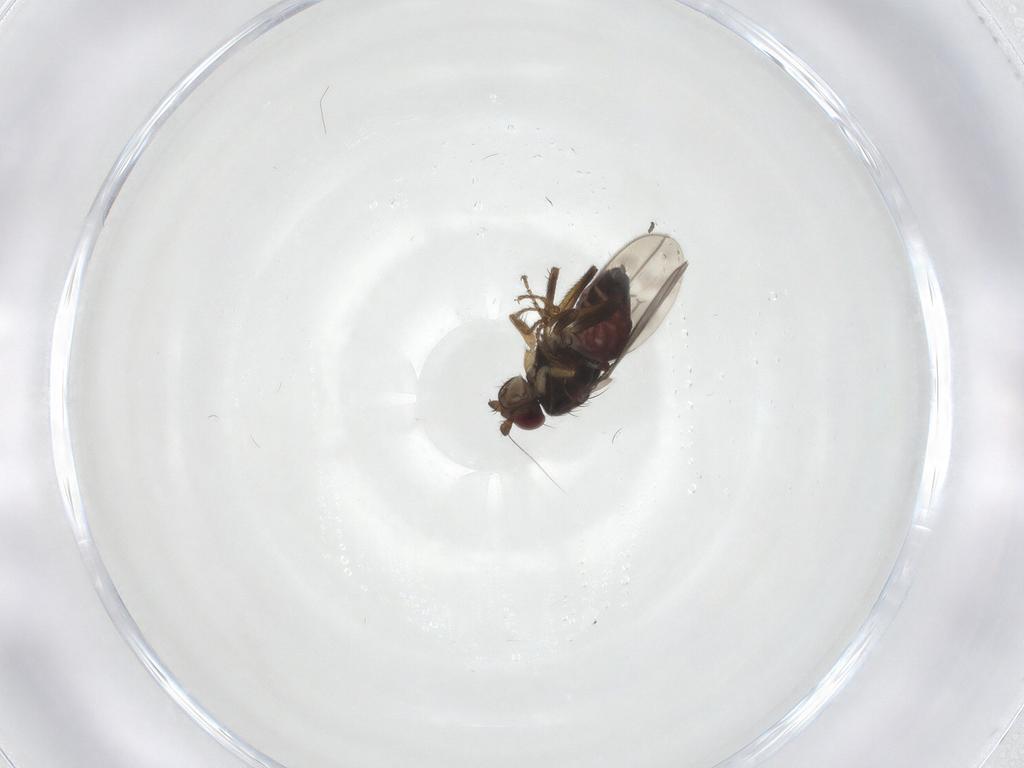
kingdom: Animalia
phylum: Arthropoda
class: Insecta
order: Diptera
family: Sphaeroceridae
